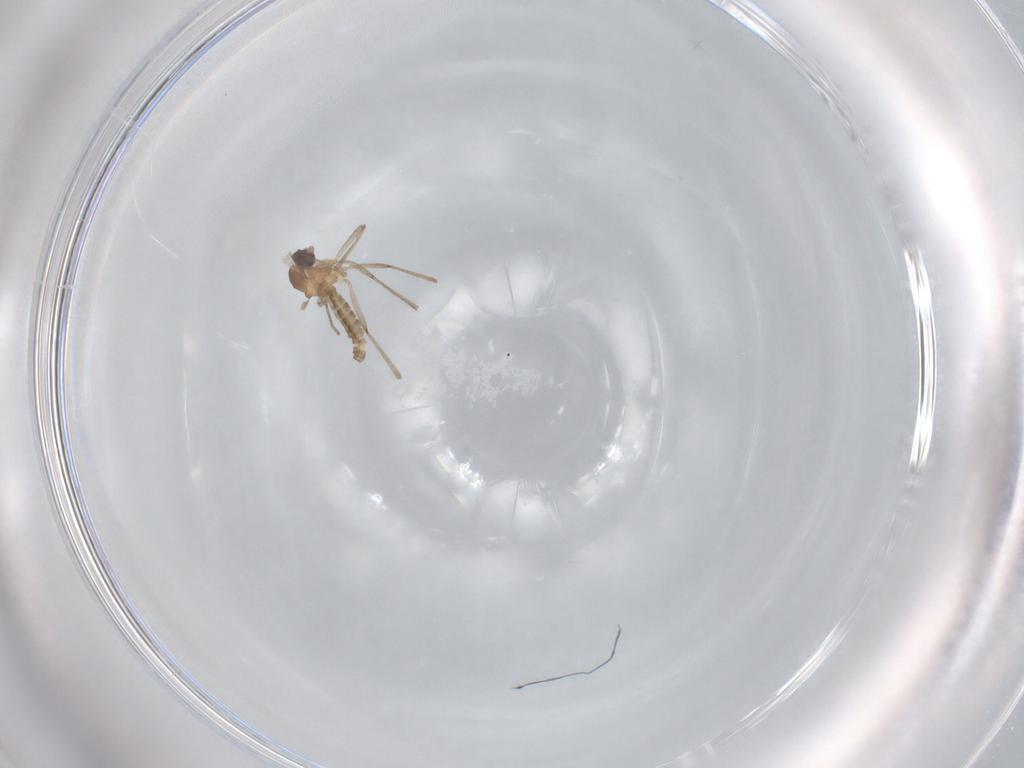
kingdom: Animalia
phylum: Arthropoda
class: Insecta
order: Diptera
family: Cecidomyiidae
